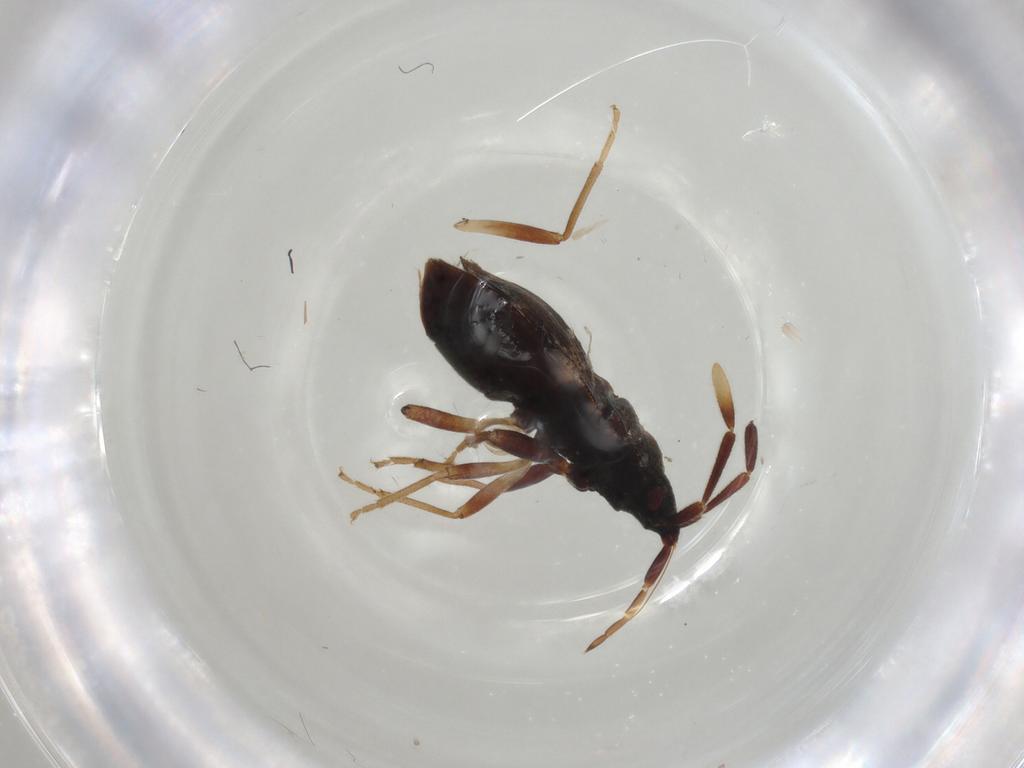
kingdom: Animalia
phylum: Arthropoda
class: Insecta
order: Hemiptera
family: Rhyparochromidae
